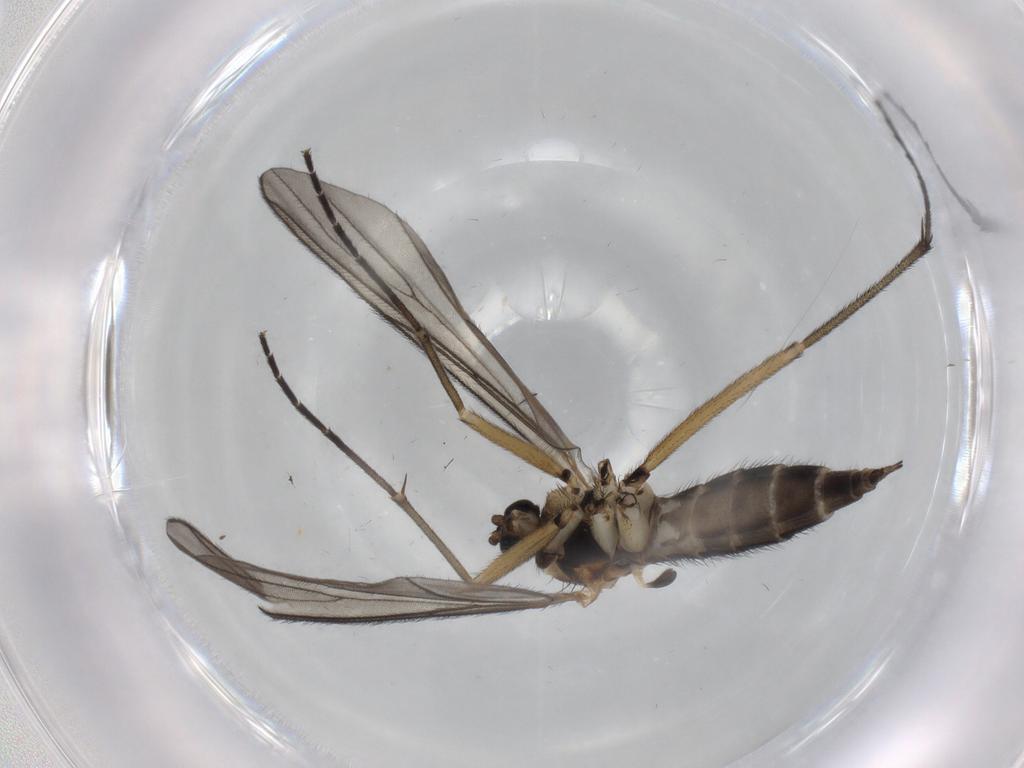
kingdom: Animalia
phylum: Arthropoda
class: Insecta
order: Diptera
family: Sciaridae
